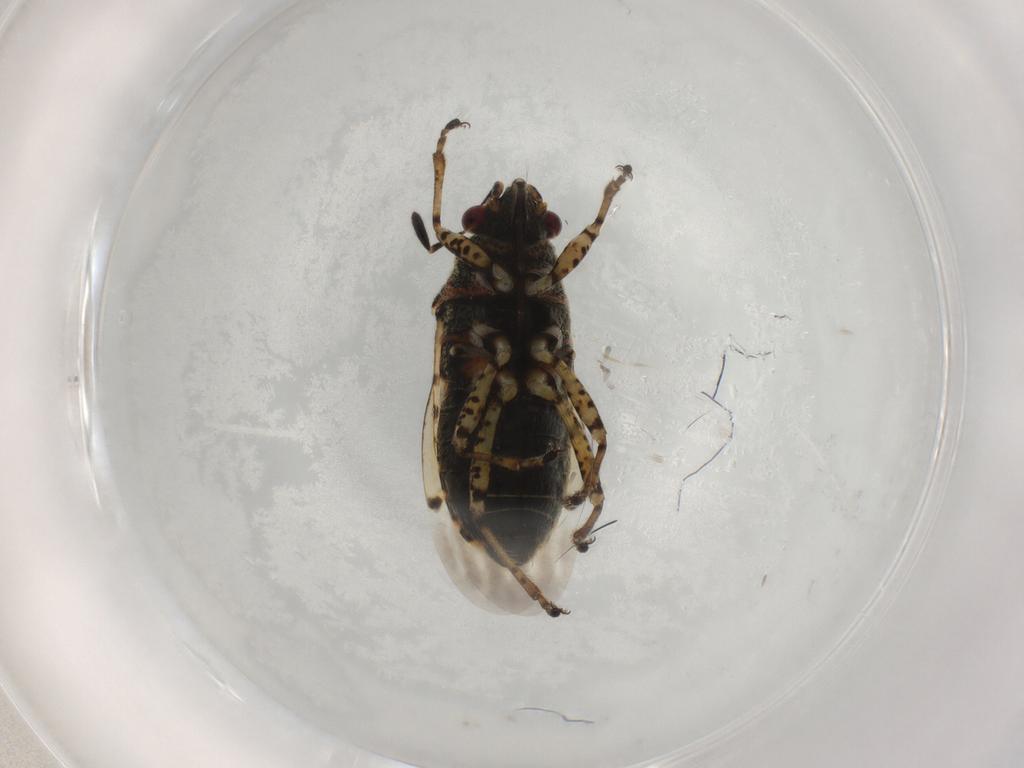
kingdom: Animalia
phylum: Arthropoda
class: Insecta
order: Hemiptera
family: Lygaeidae
